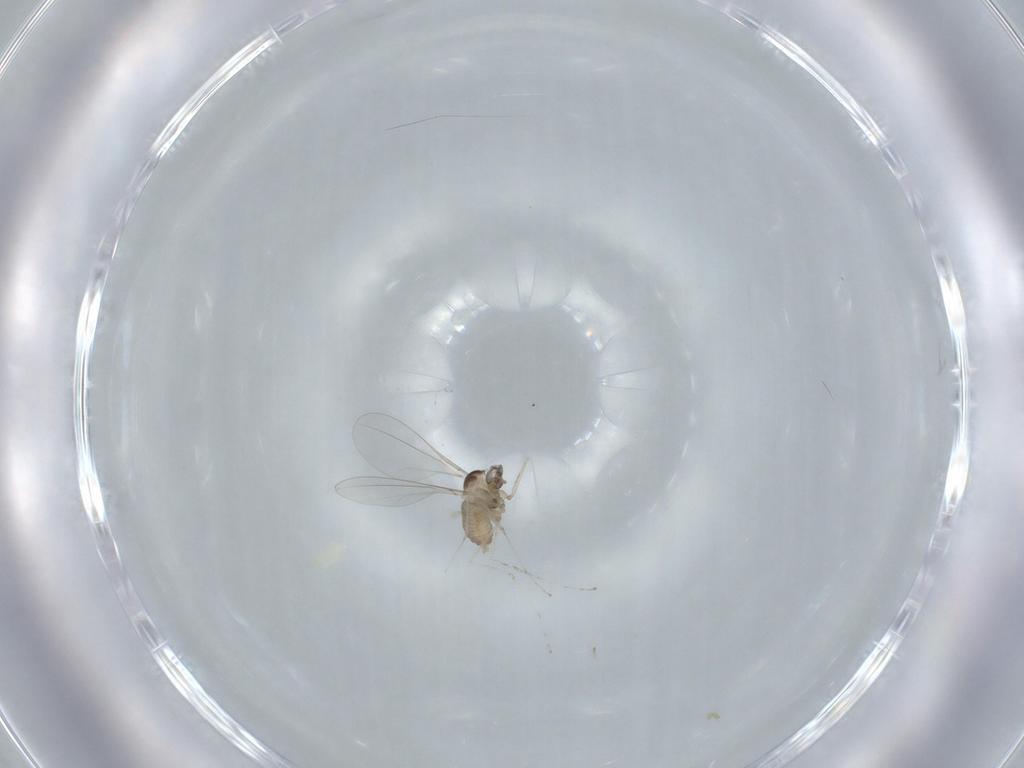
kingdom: Animalia
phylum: Arthropoda
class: Insecta
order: Diptera
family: Cecidomyiidae
